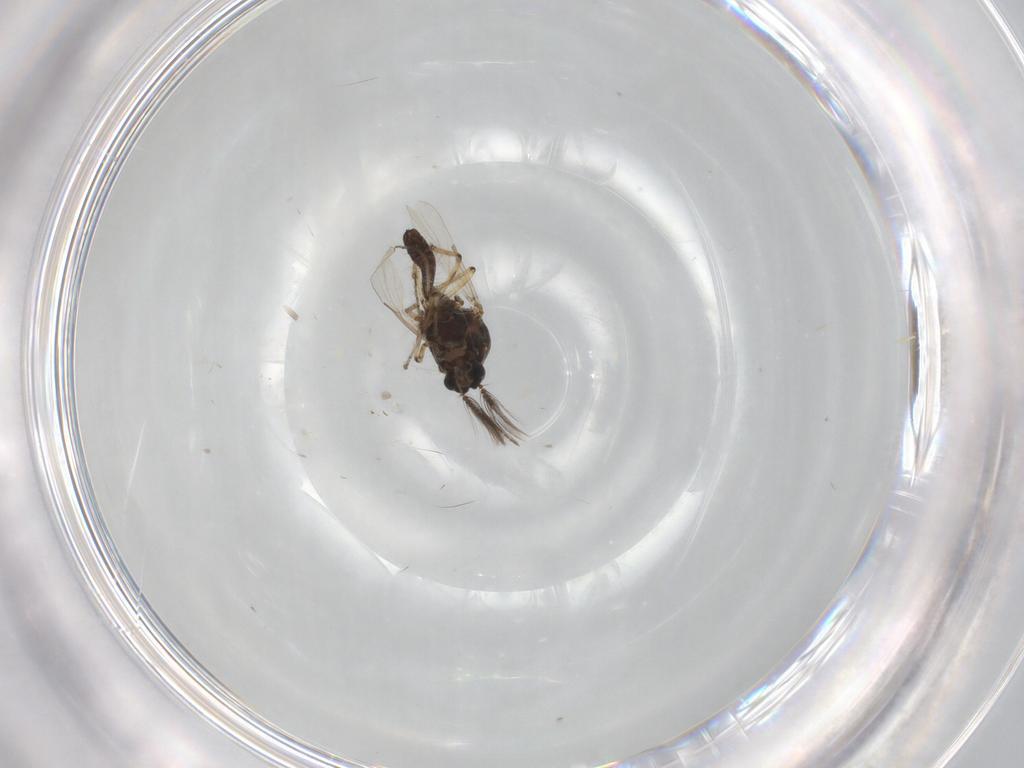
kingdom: Animalia
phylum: Arthropoda
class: Insecta
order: Diptera
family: Ceratopogonidae
